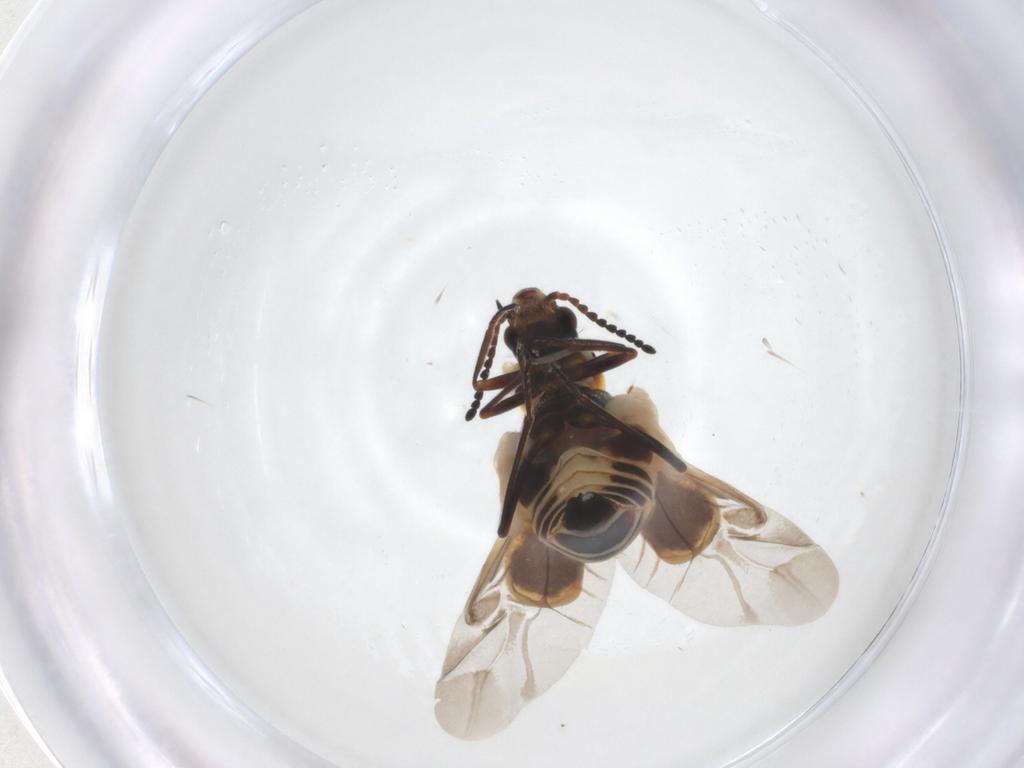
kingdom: Animalia
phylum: Arthropoda
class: Insecta
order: Coleoptera
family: Melyridae
